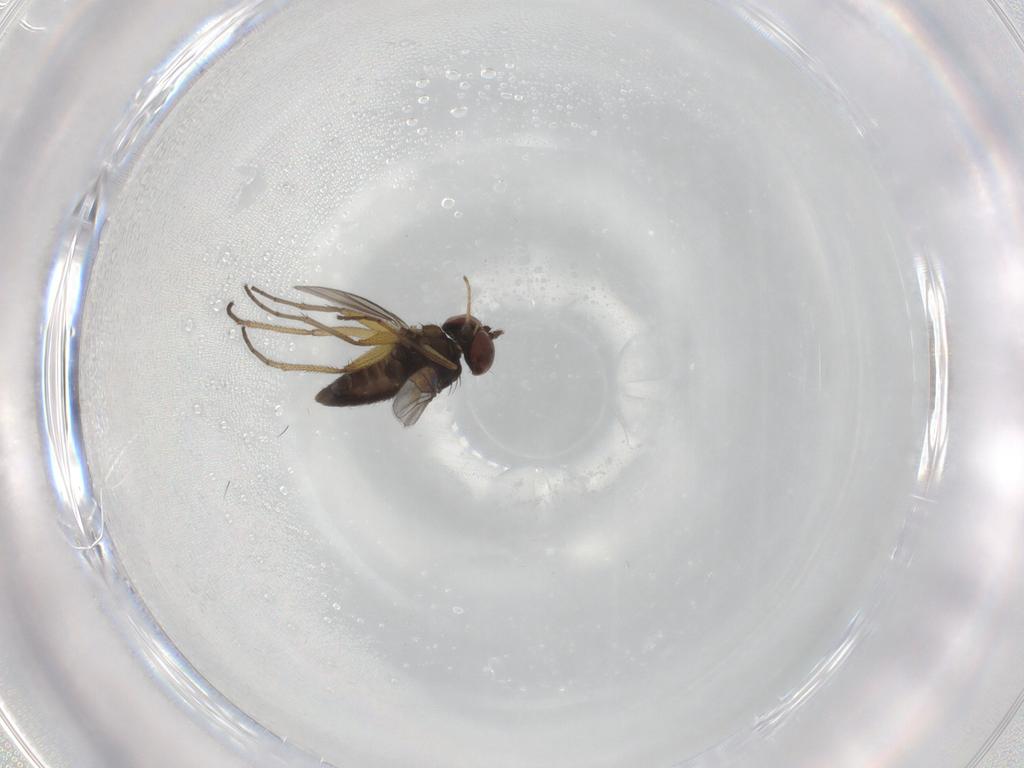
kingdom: Animalia
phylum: Arthropoda
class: Insecta
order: Diptera
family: Dolichopodidae
